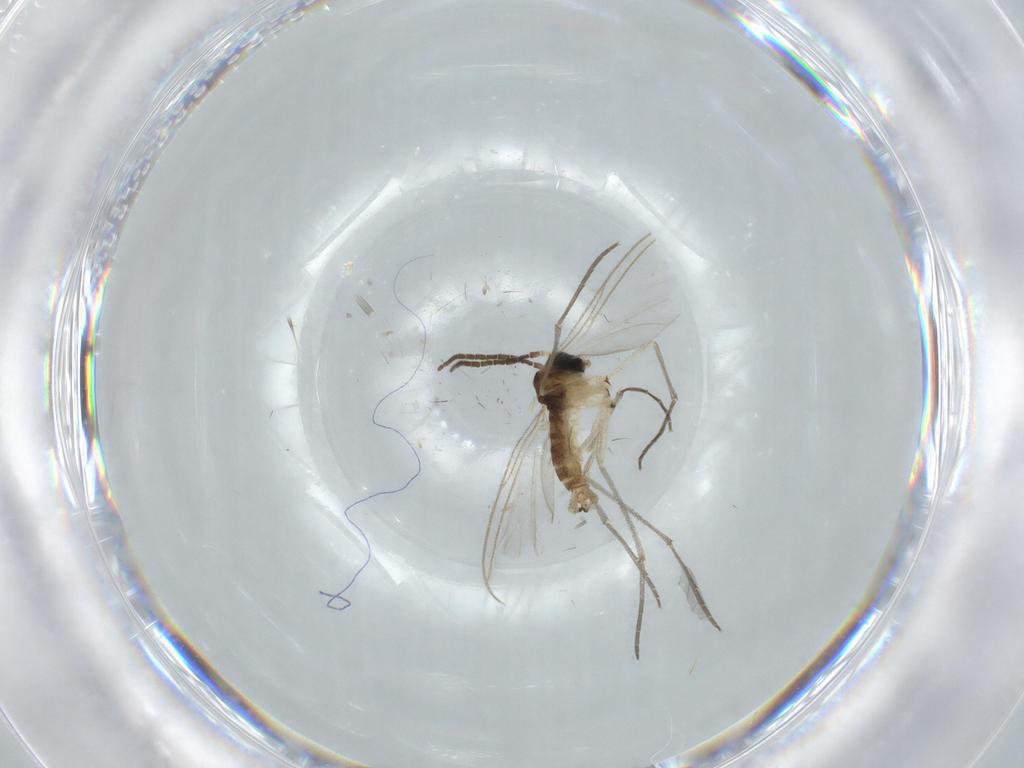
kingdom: Animalia
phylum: Arthropoda
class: Insecta
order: Diptera
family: Sciaridae
